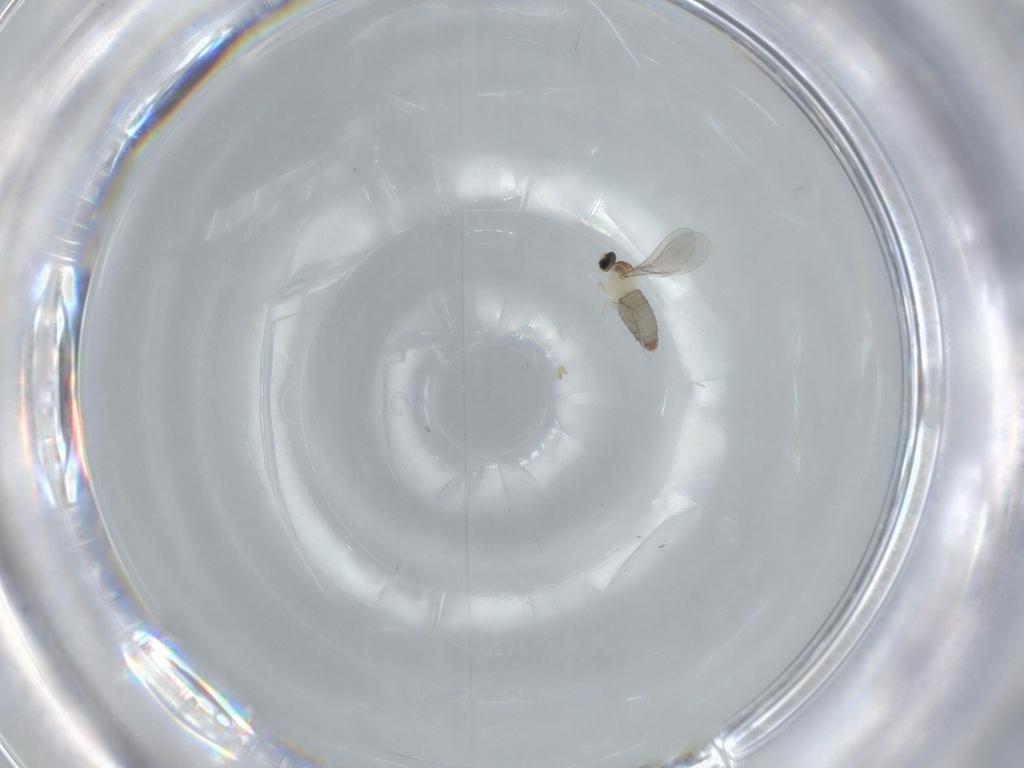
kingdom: Animalia
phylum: Arthropoda
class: Insecta
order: Diptera
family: Cecidomyiidae
